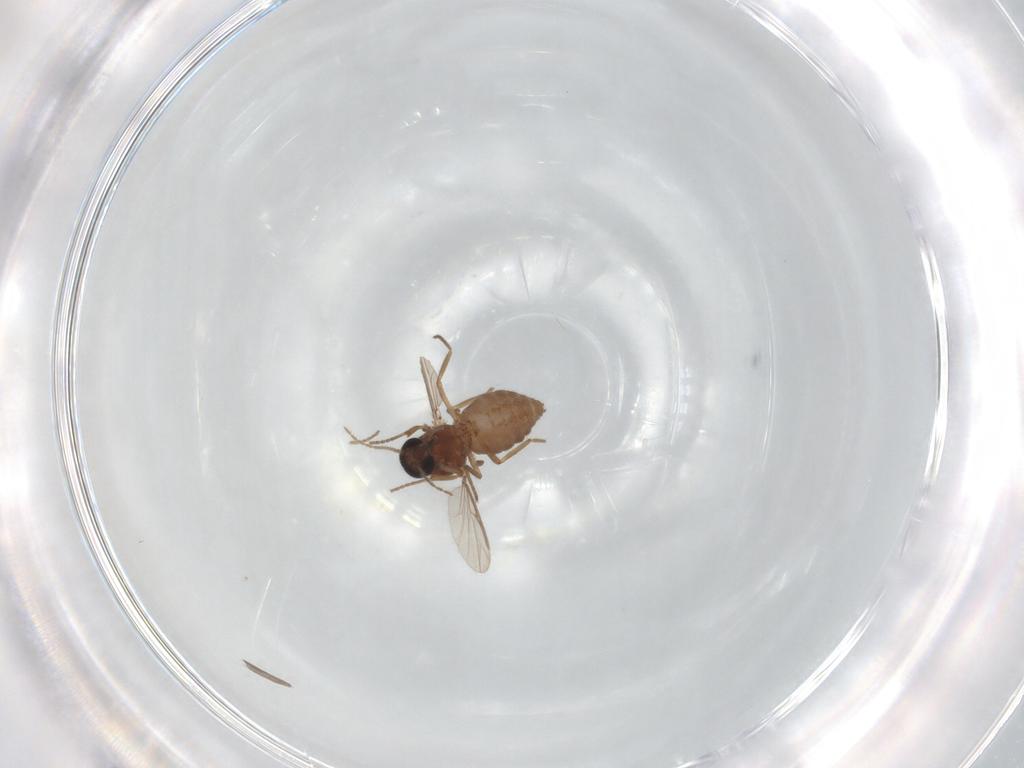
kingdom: Animalia
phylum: Arthropoda
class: Insecta
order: Diptera
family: Ceratopogonidae
